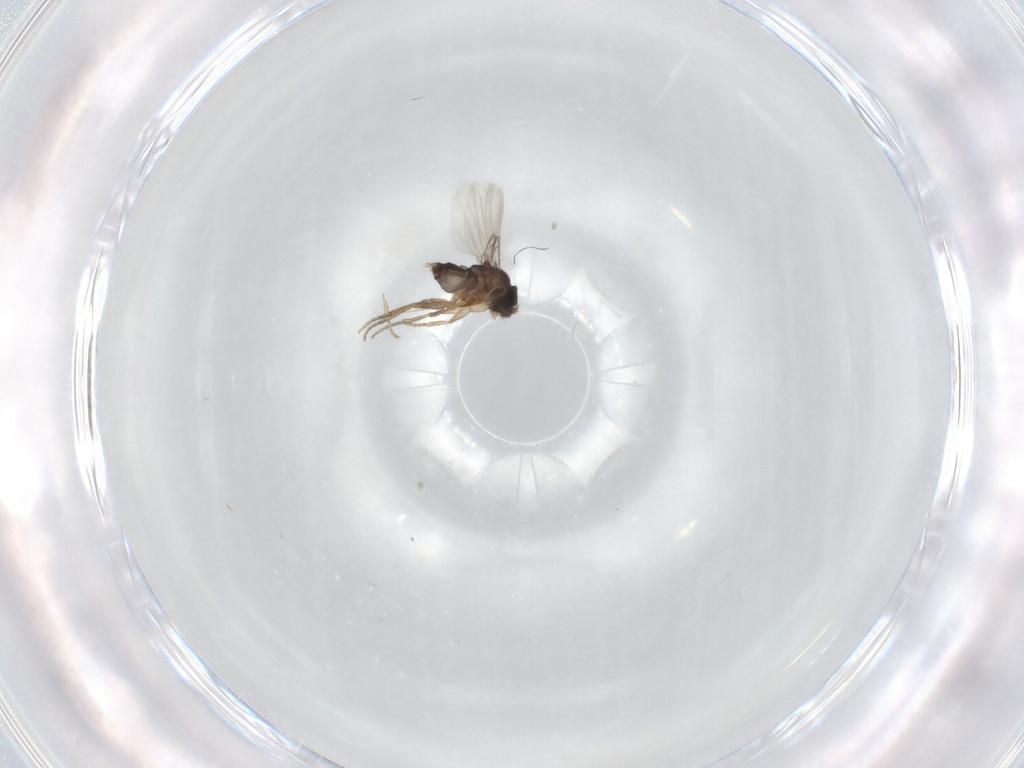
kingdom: Animalia
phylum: Arthropoda
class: Insecta
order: Diptera
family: Phoridae
